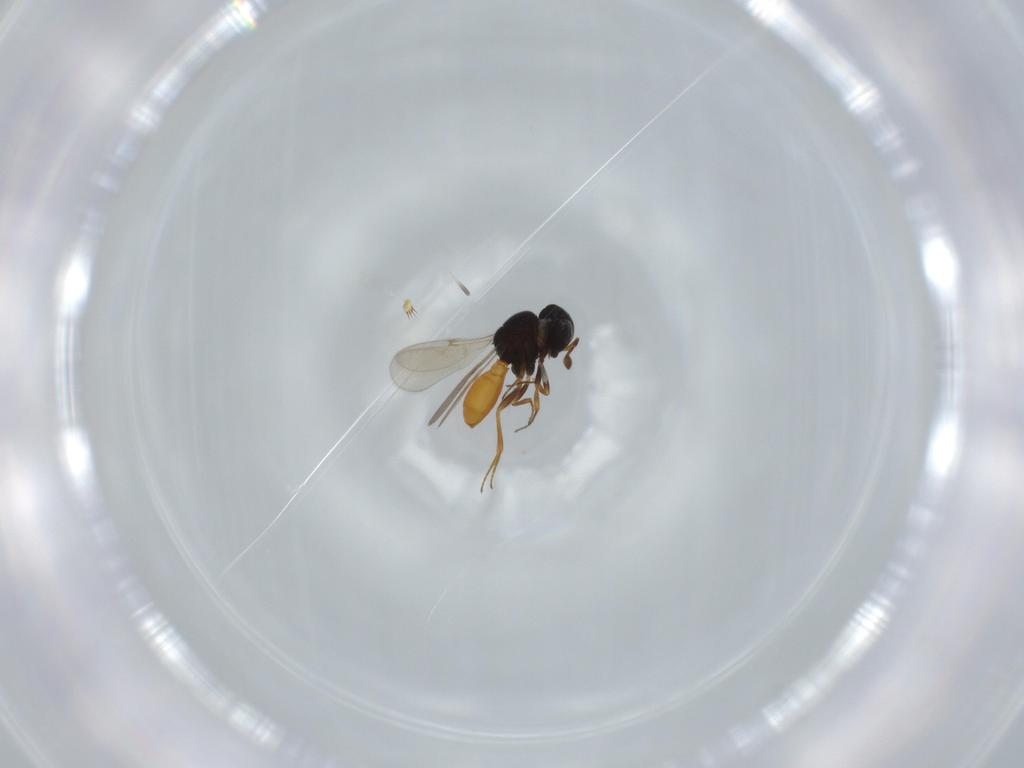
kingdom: Animalia
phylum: Arthropoda
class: Insecta
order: Hymenoptera
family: Scelionidae
